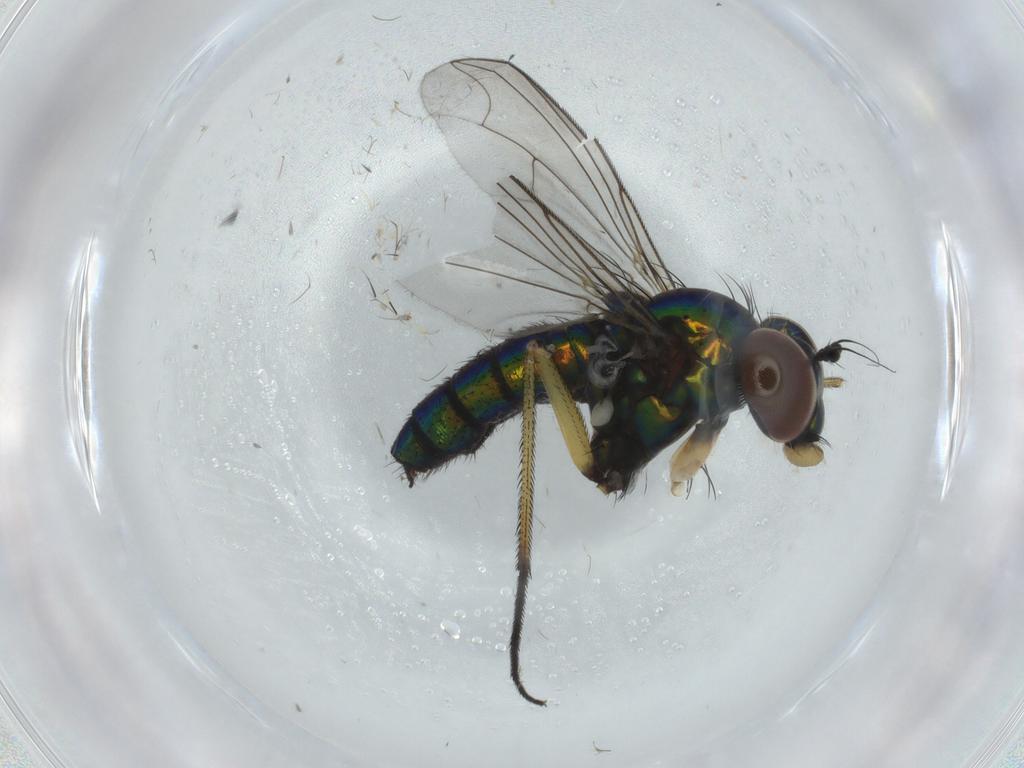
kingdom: Animalia
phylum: Arthropoda
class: Insecta
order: Diptera
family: Dolichopodidae
